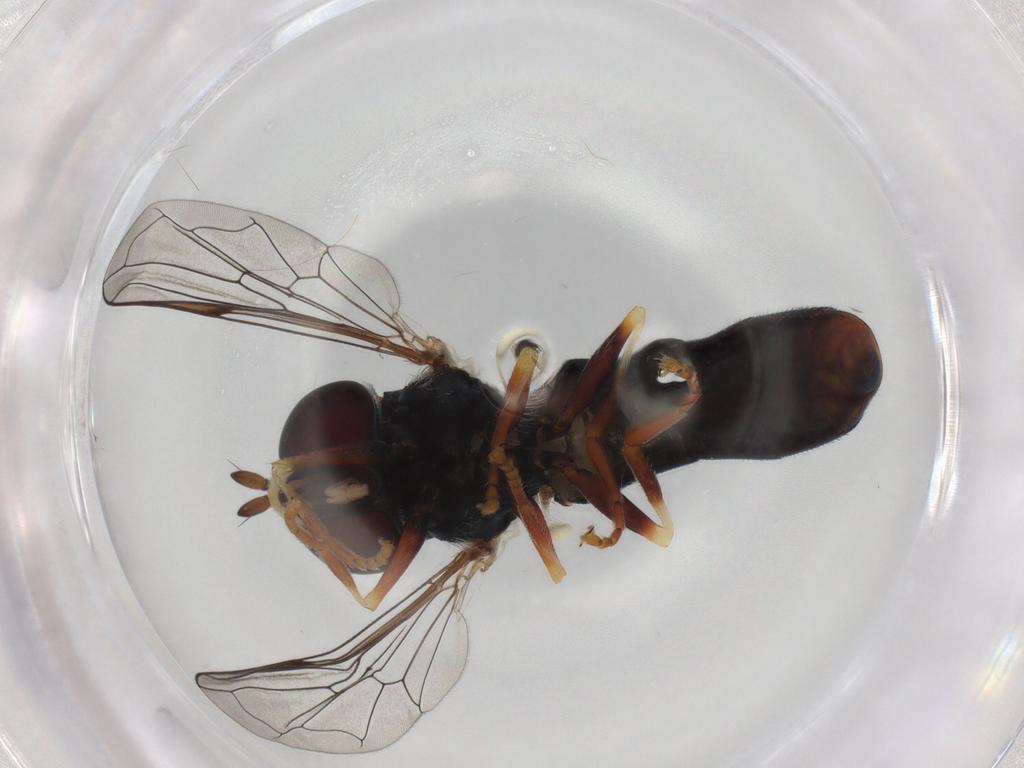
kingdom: Animalia
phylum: Arthropoda
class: Insecta
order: Diptera
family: Syrphidae
